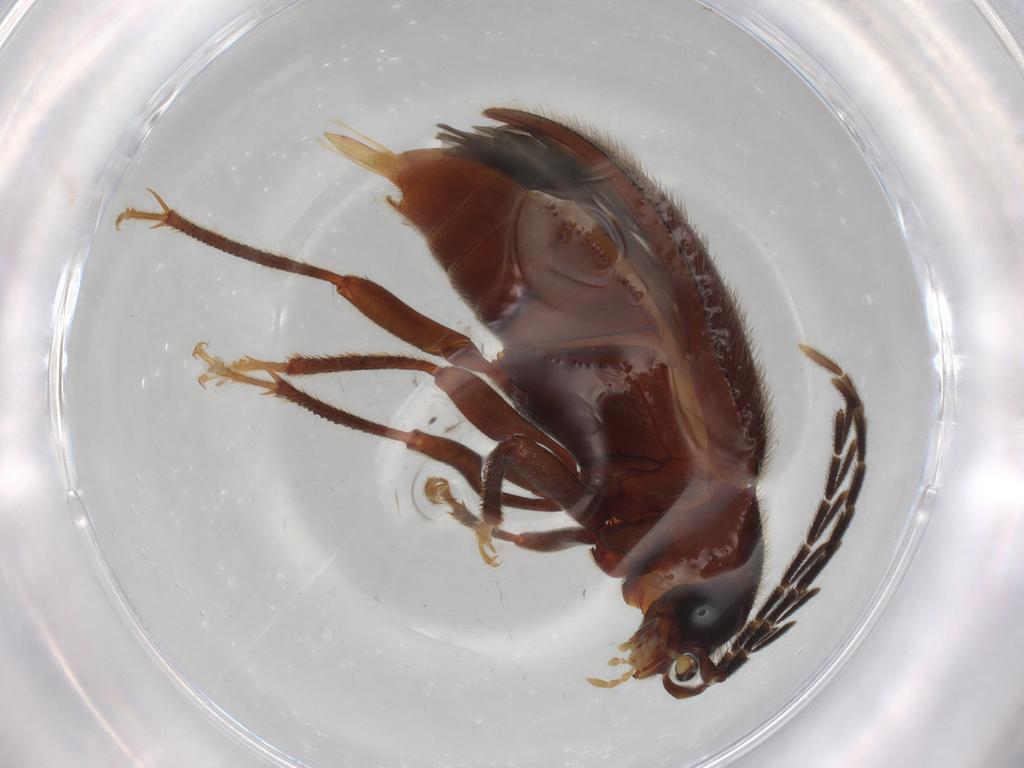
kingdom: Animalia
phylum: Arthropoda
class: Insecta
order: Coleoptera
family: Ptilodactylidae
